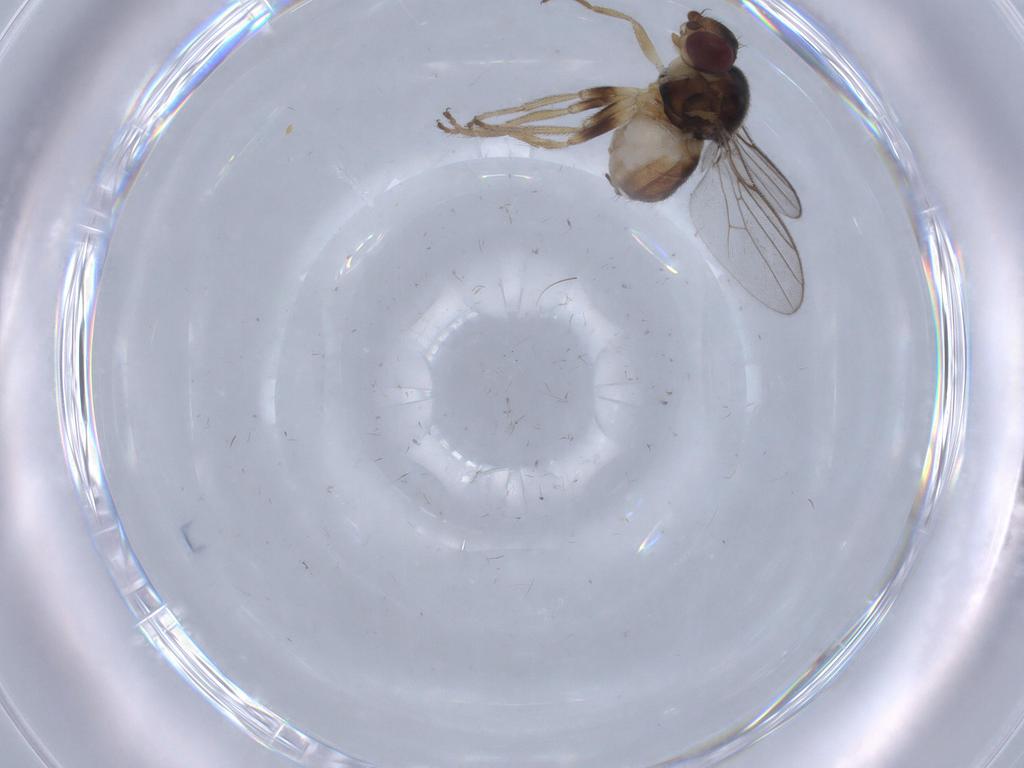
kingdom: Animalia
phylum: Arthropoda
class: Insecta
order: Diptera
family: Chloropidae
